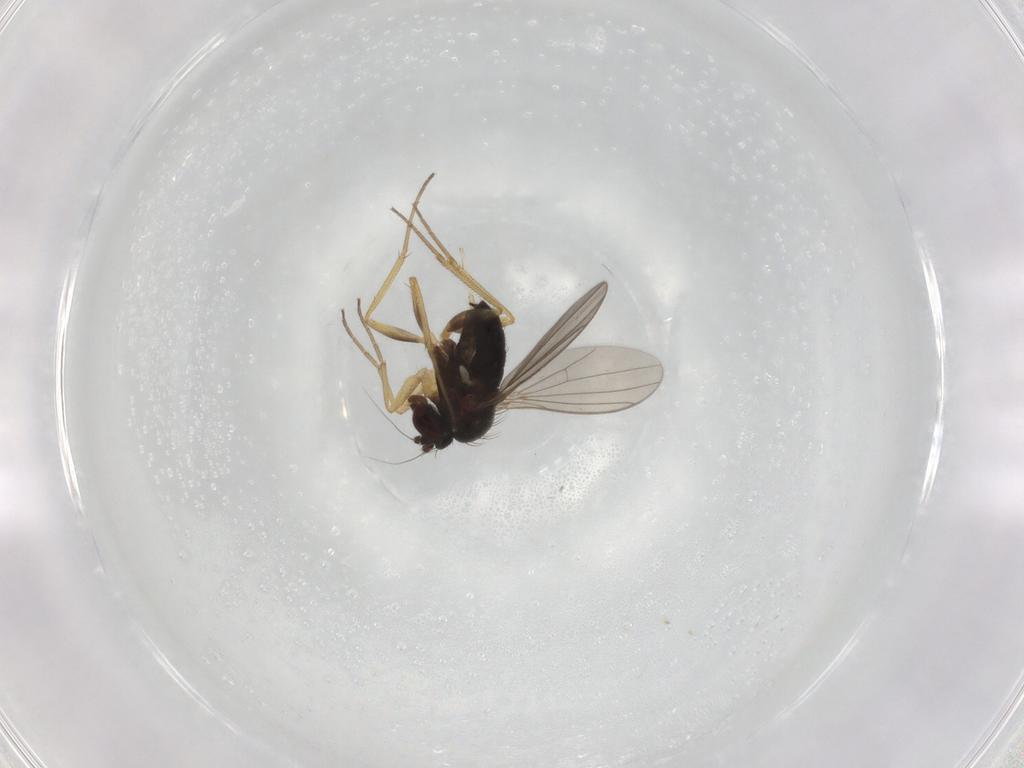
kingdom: Animalia
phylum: Arthropoda
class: Insecta
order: Diptera
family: Dolichopodidae
